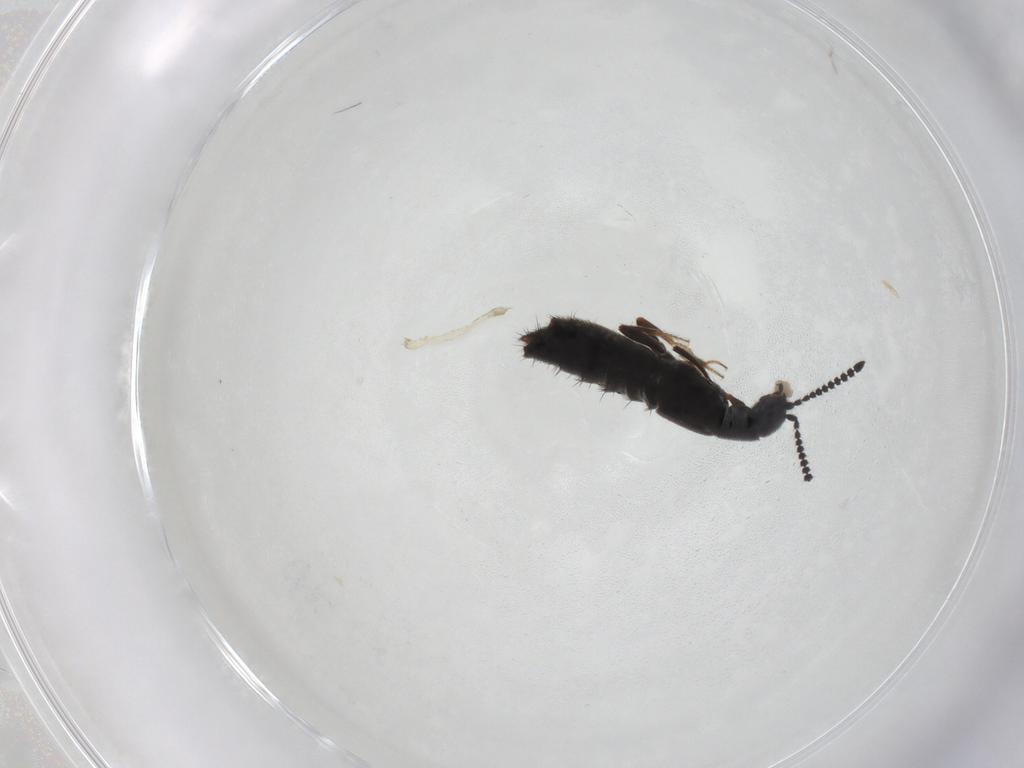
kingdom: Animalia
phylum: Arthropoda
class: Insecta
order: Coleoptera
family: Staphylinidae
